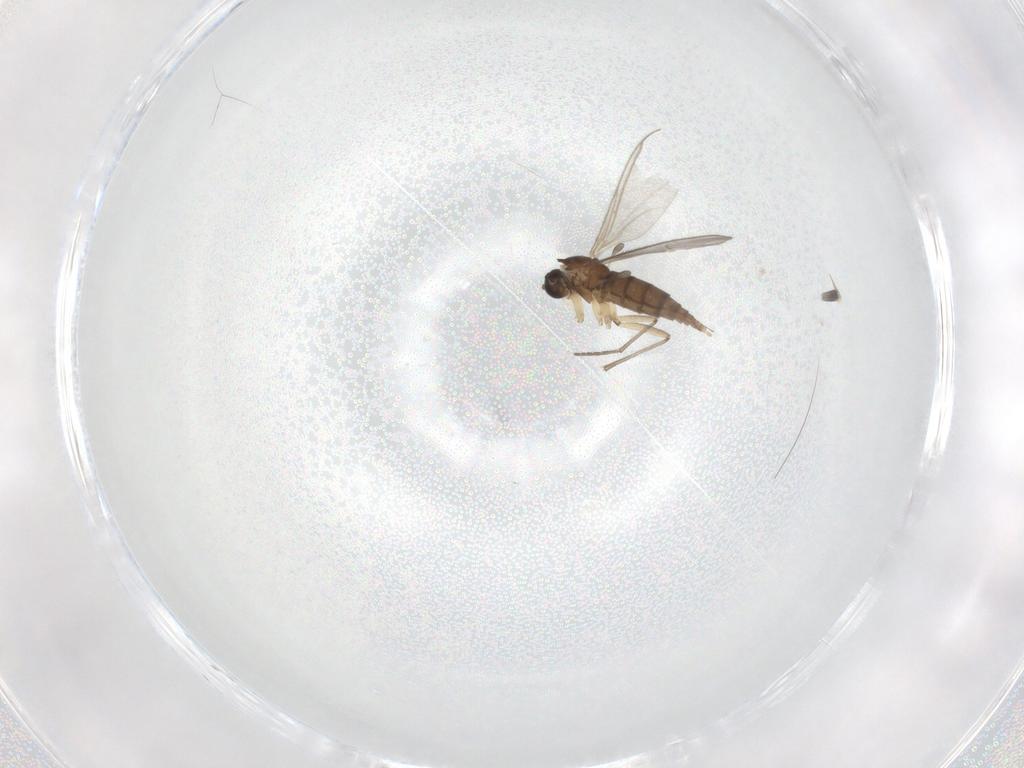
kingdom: Animalia
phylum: Arthropoda
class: Insecta
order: Diptera
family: Sciaridae
